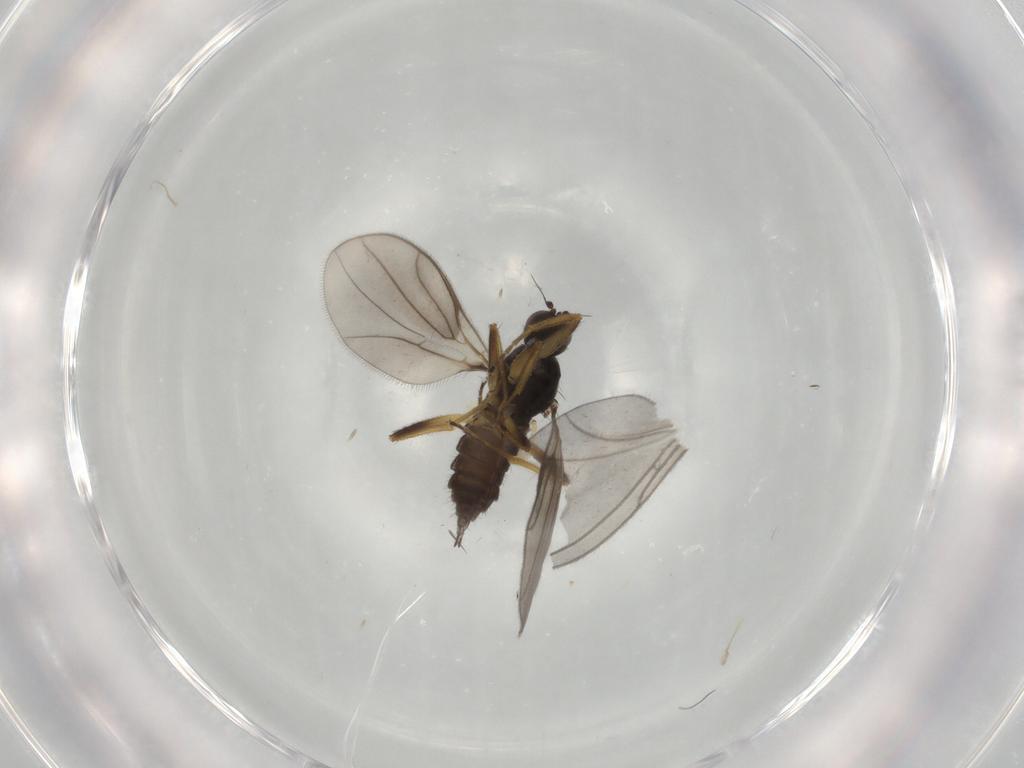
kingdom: Animalia
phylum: Arthropoda
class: Insecta
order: Diptera
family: Hybotidae
